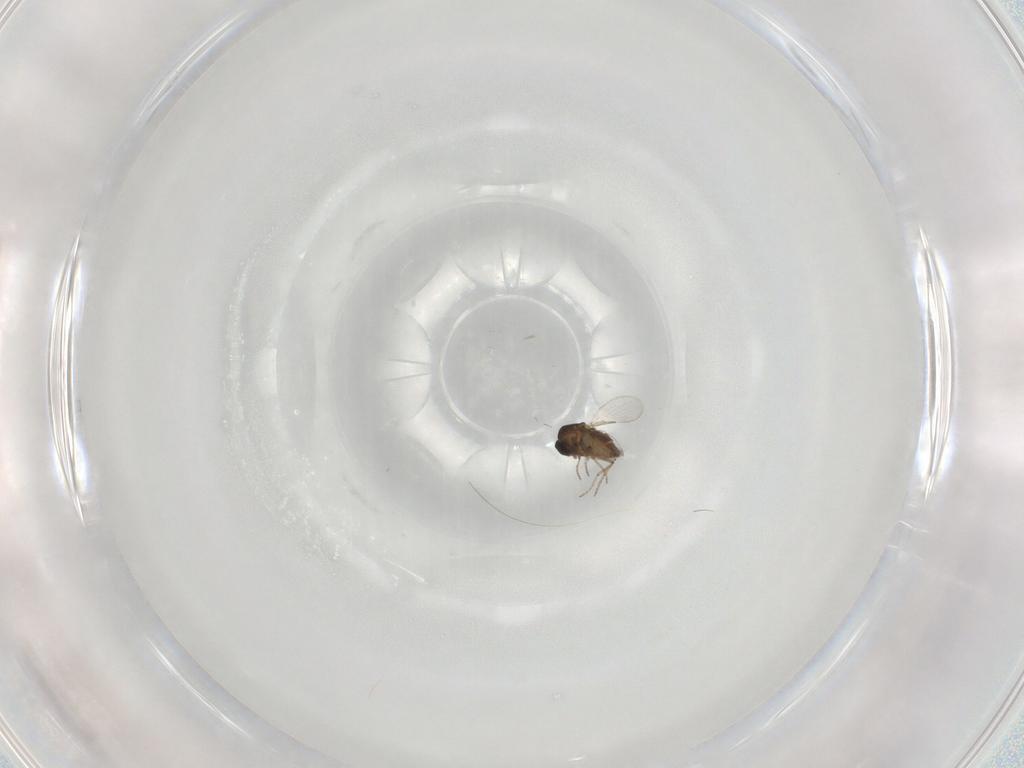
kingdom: Animalia
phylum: Arthropoda
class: Insecta
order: Diptera
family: Ceratopogonidae
